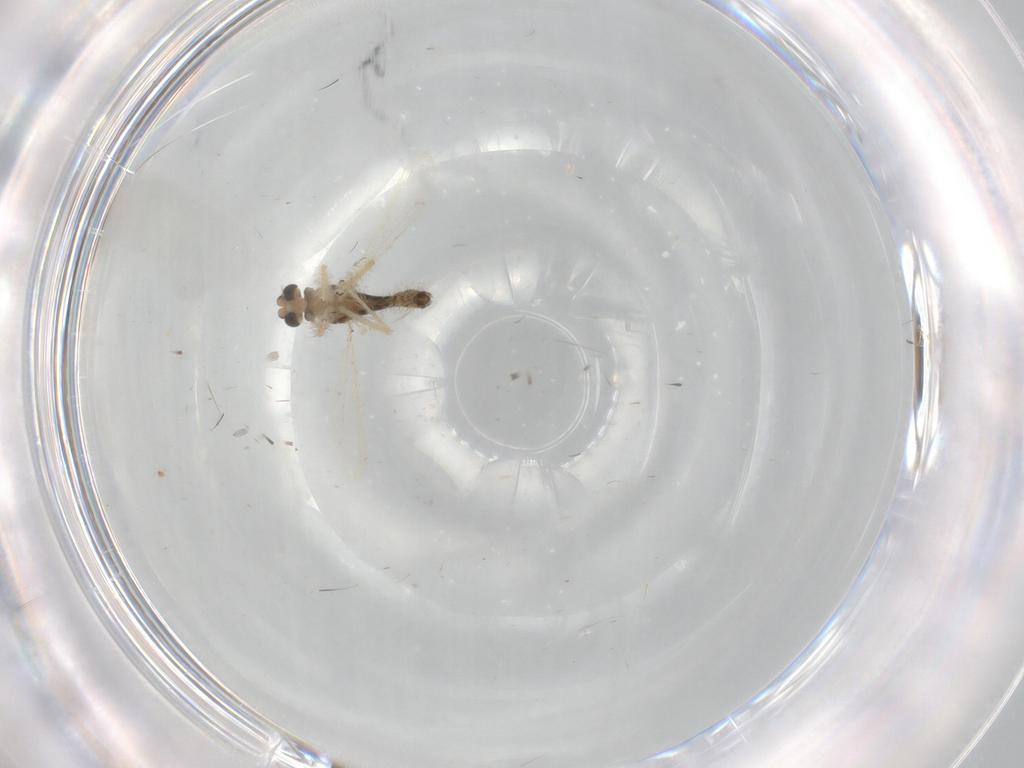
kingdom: Animalia
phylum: Arthropoda
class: Insecta
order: Diptera
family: Chironomidae
